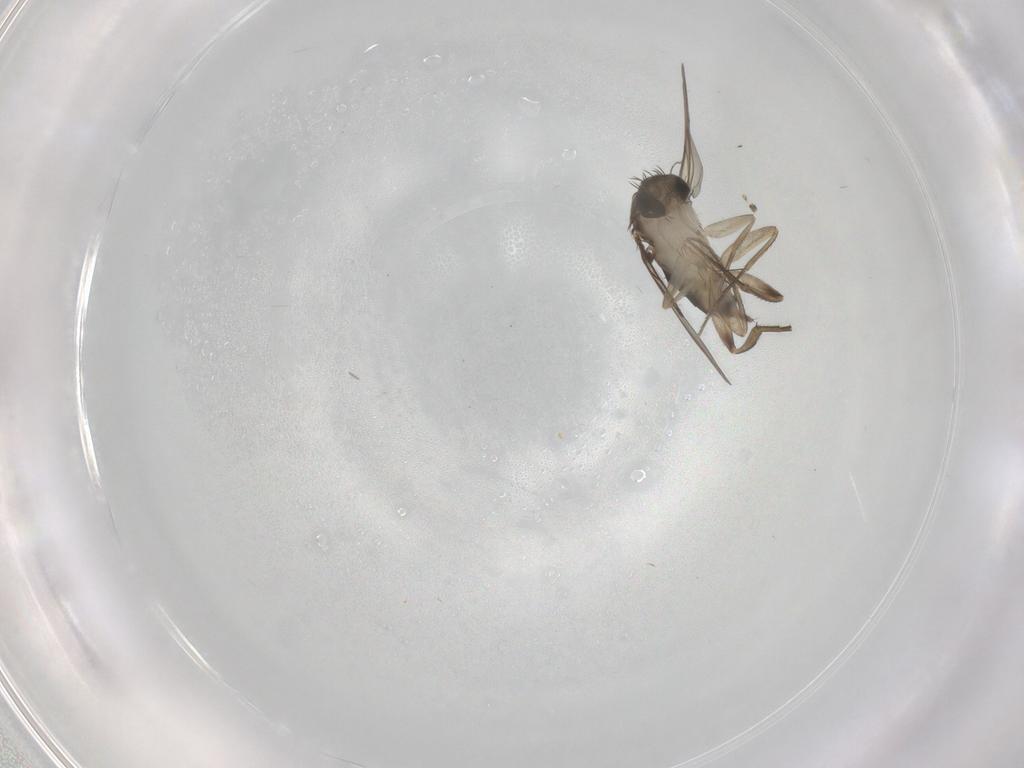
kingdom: Animalia
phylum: Arthropoda
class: Insecta
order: Diptera
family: Phoridae
